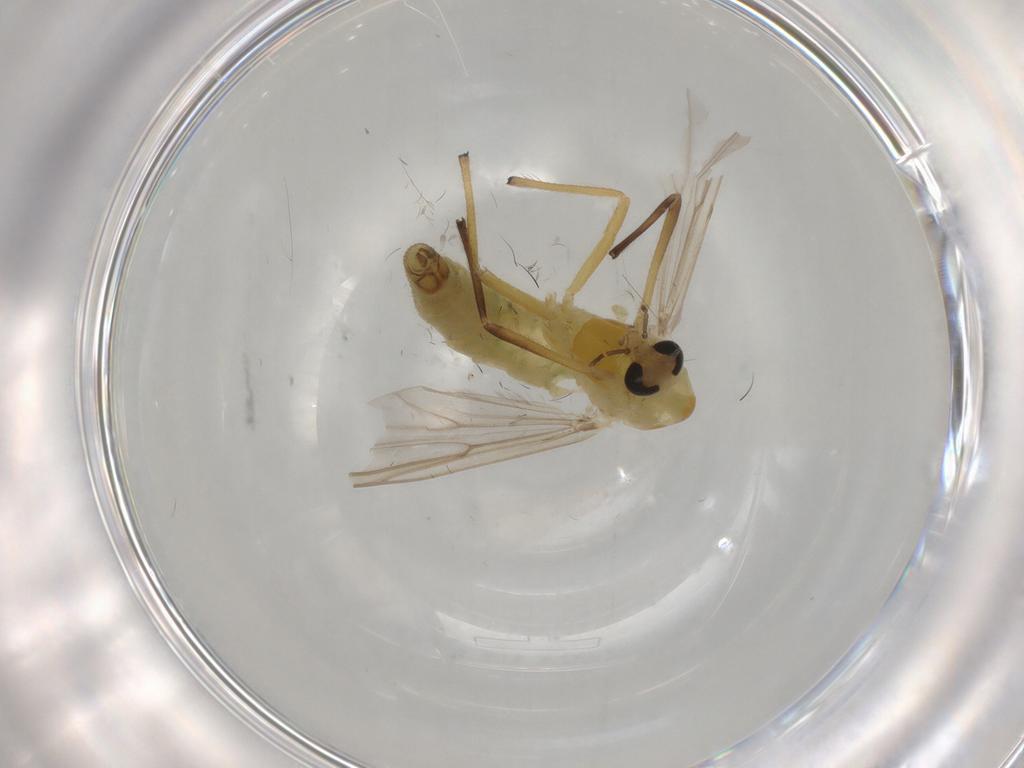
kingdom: Animalia
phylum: Arthropoda
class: Insecta
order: Diptera
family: Chironomidae
